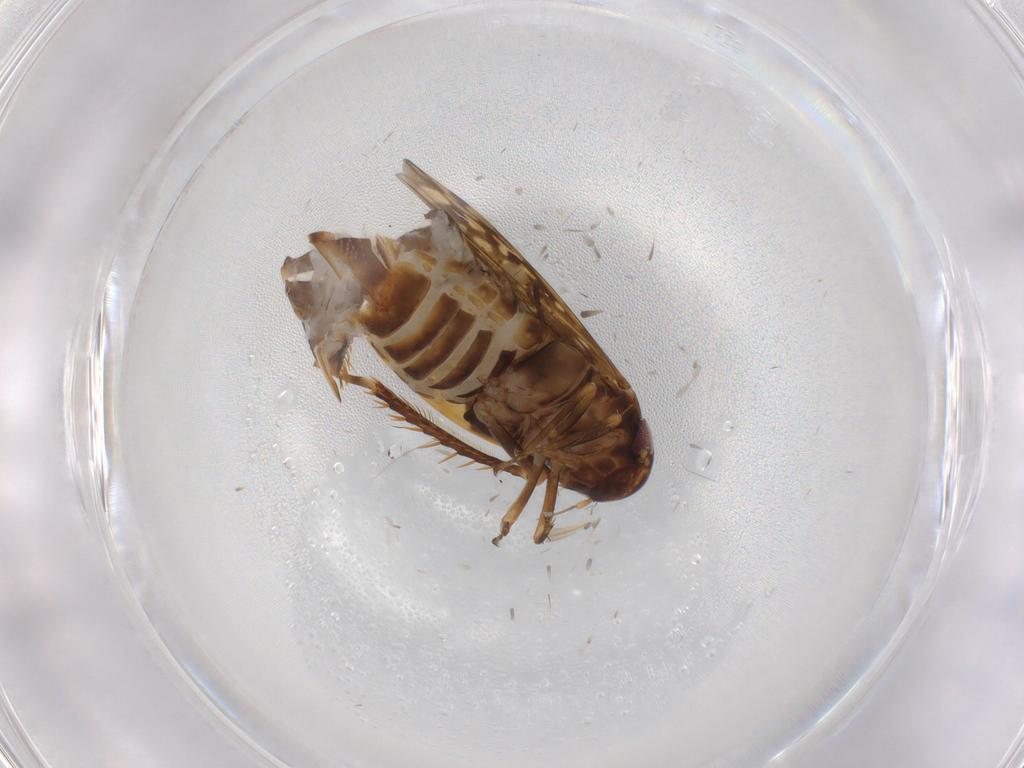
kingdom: Animalia
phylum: Arthropoda
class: Insecta
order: Hemiptera
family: Cicadellidae
